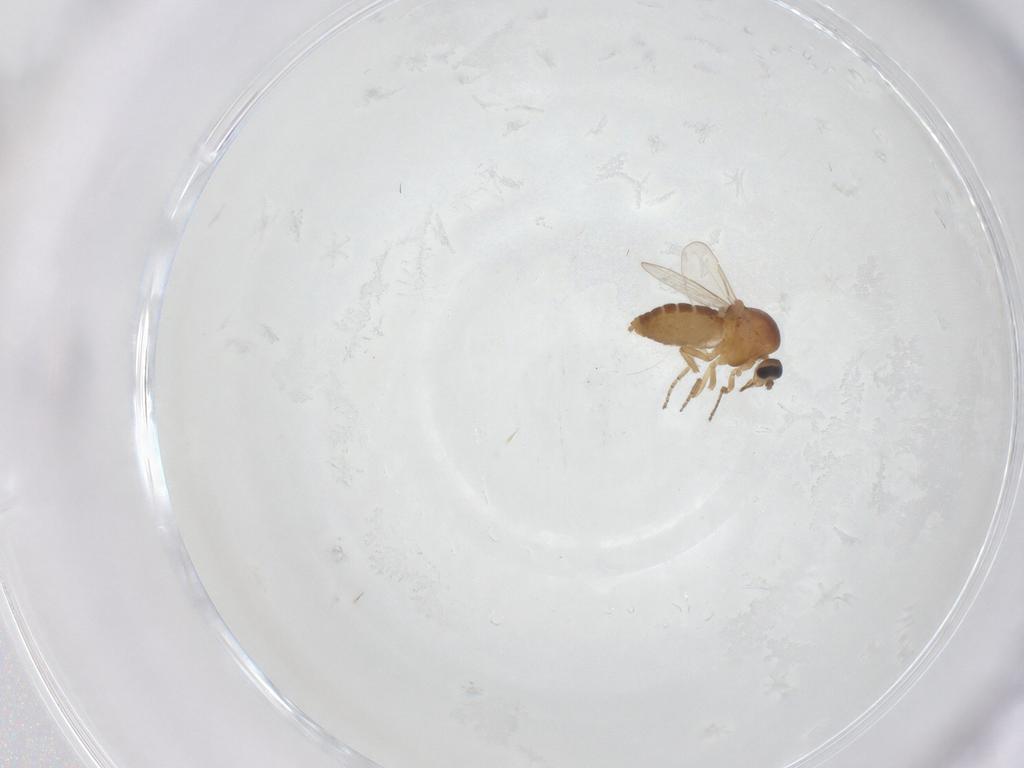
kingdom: Animalia
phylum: Arthropoda
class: Insecta
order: Diptera
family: Ceratopogonidae
